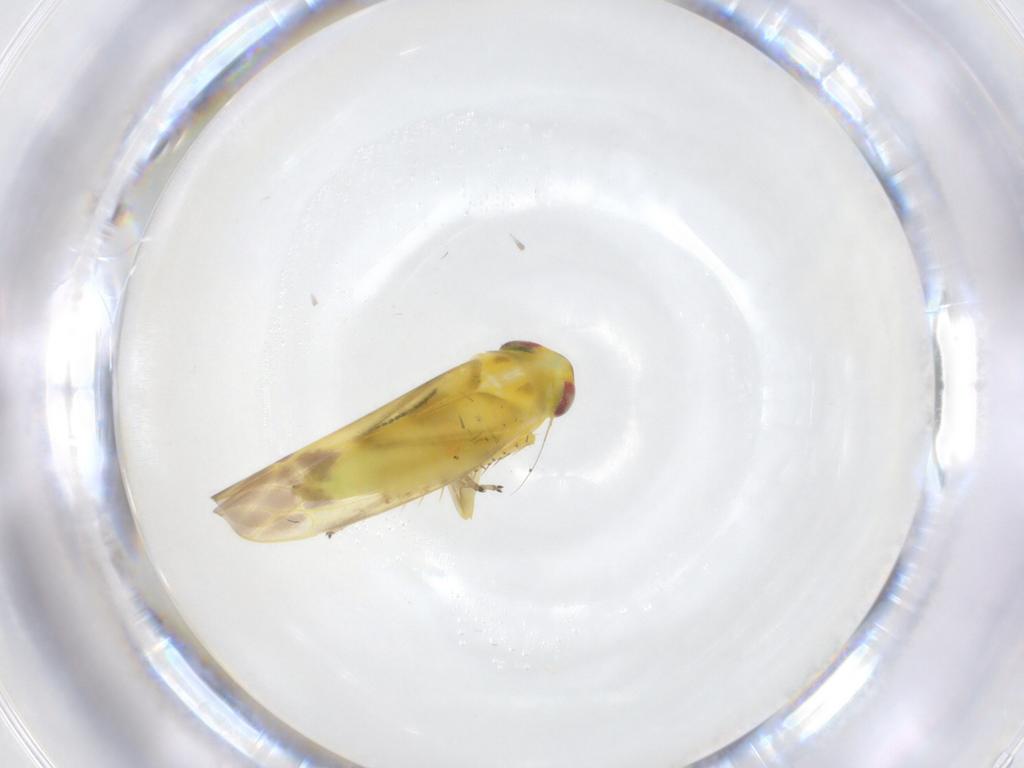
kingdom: Animalia
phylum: Arthropoda
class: Insecta
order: Hemiptera
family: Cicadellidae
